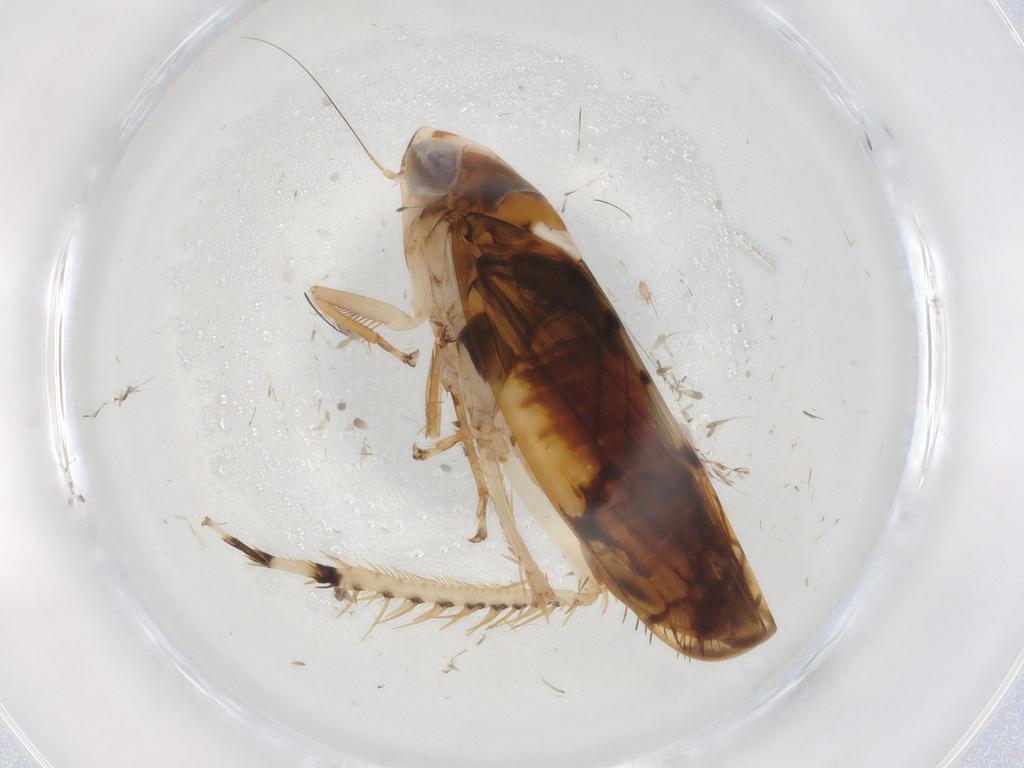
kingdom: Animalia
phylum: Arthropoda
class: Insecta
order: Hemiptera
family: Cicadellidae
